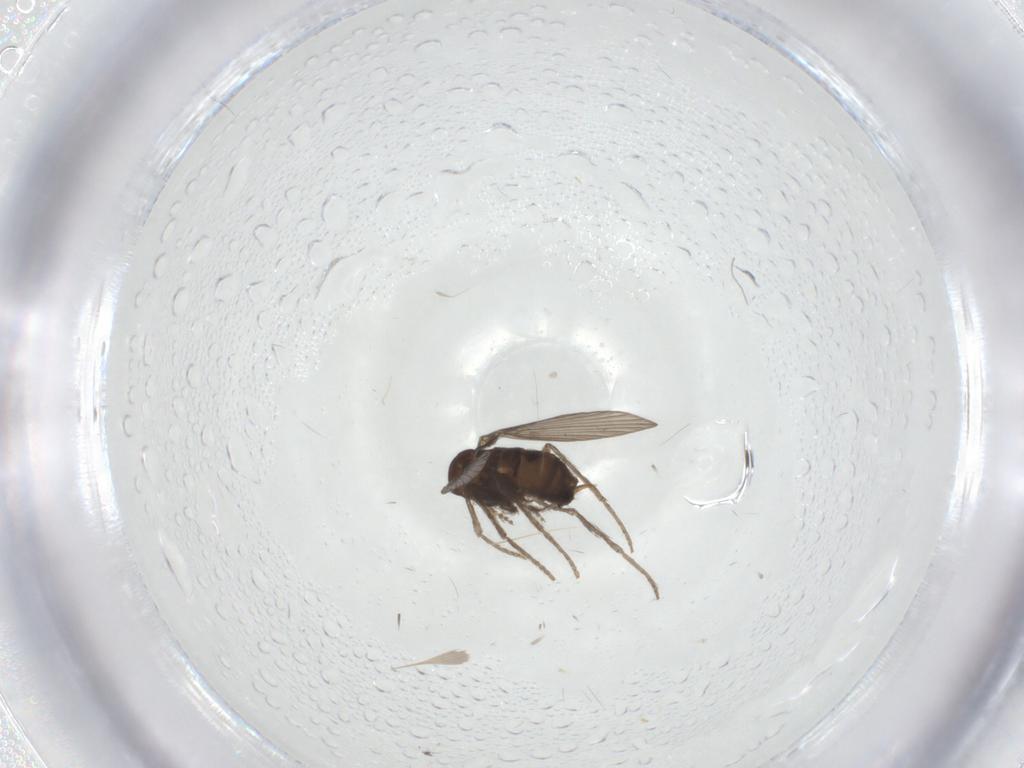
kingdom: Animalia
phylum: Arthropoda
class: Insecta
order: Diptera
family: Psychodidae
